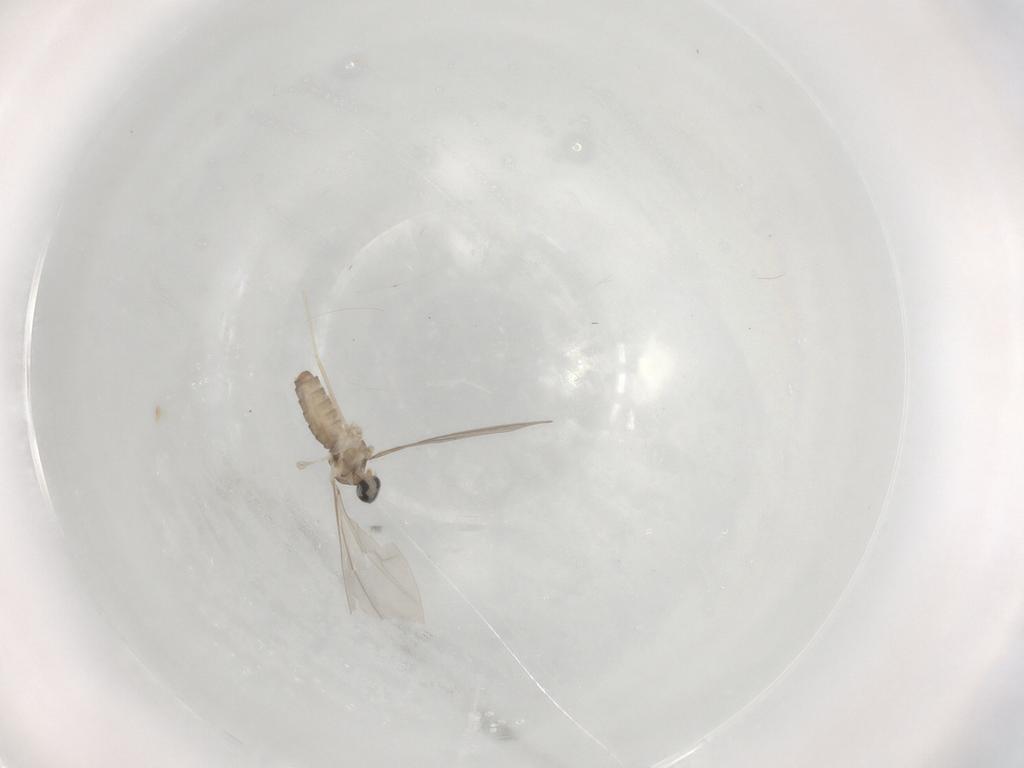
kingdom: Animalia
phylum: Arthropoda
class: Insecta
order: Diptera
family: Cecidomyiidae
